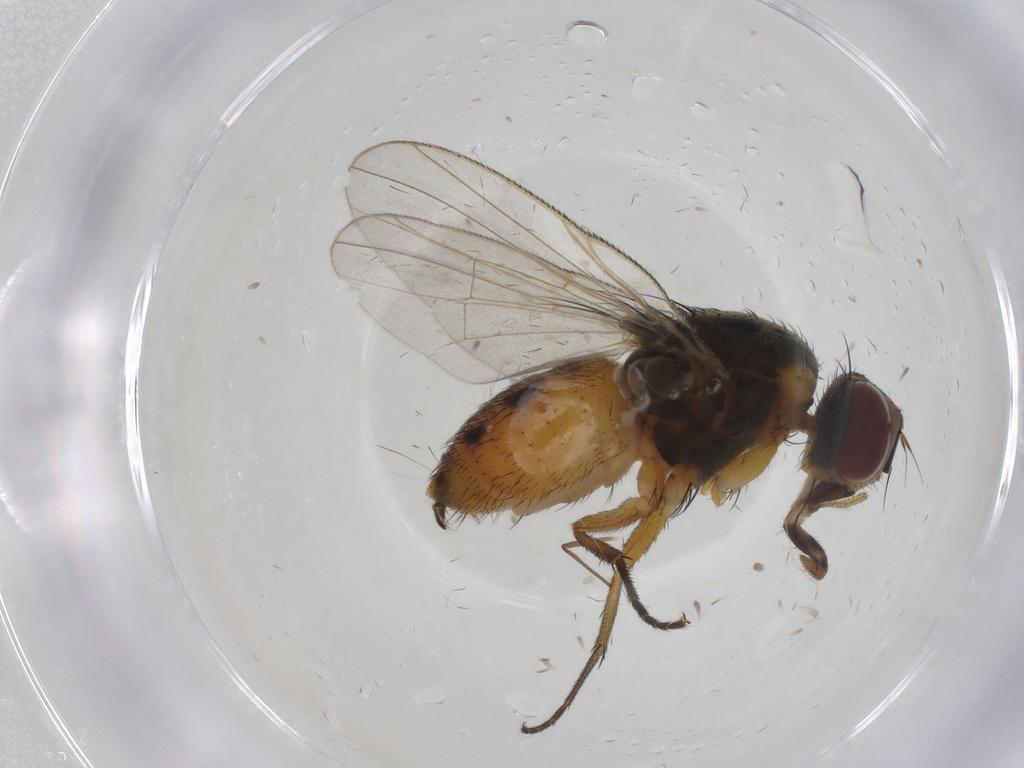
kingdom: Animalia
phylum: Arthropoda
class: Insecta
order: Diptera
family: Muscidae
